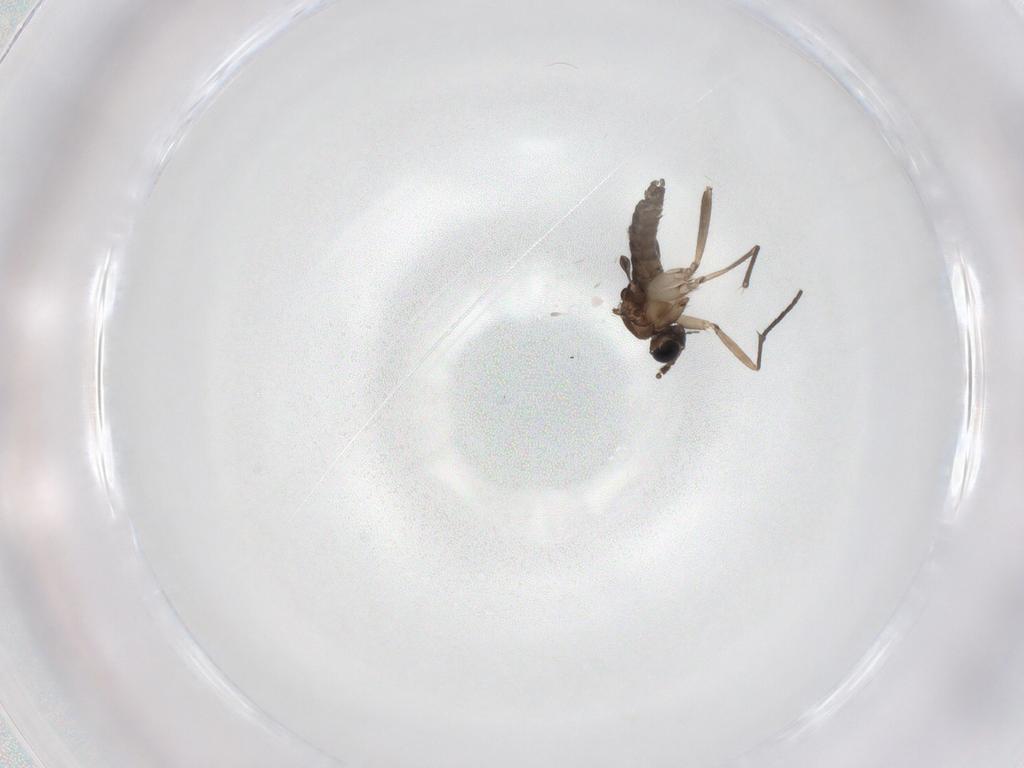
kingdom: Animalia
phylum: Arthropoda
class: Insecta
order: Diptera
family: Sciaridae
